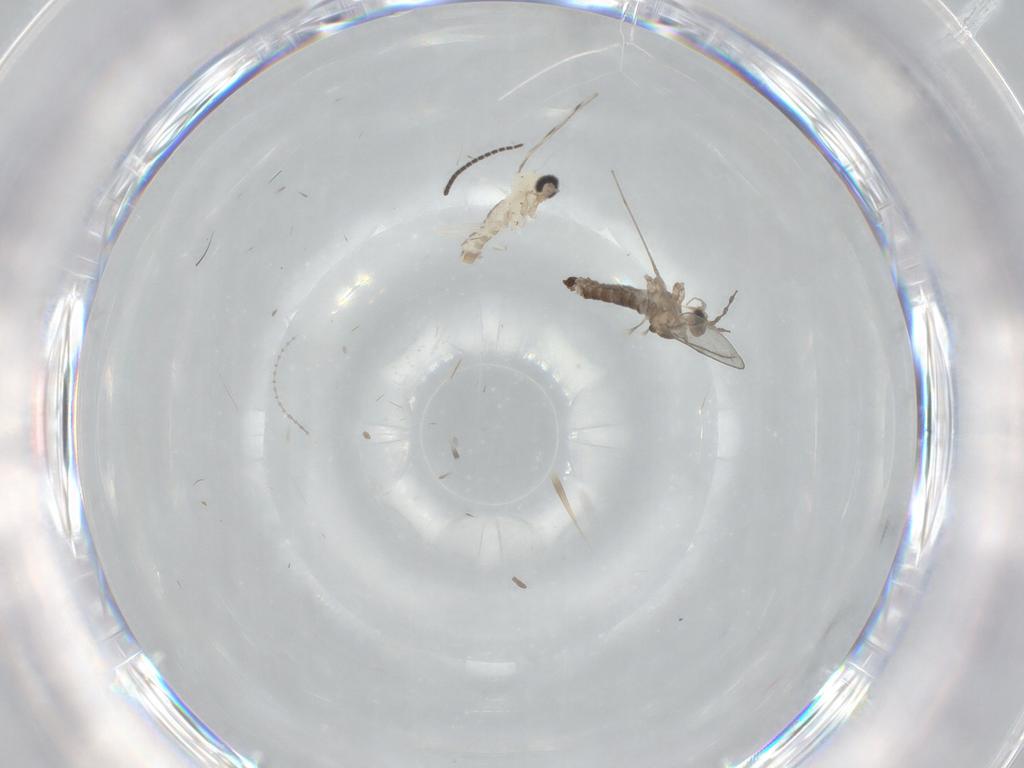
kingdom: Animalia
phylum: Arthropoda
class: Insecta
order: Diptera
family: Cecidomyiidae
